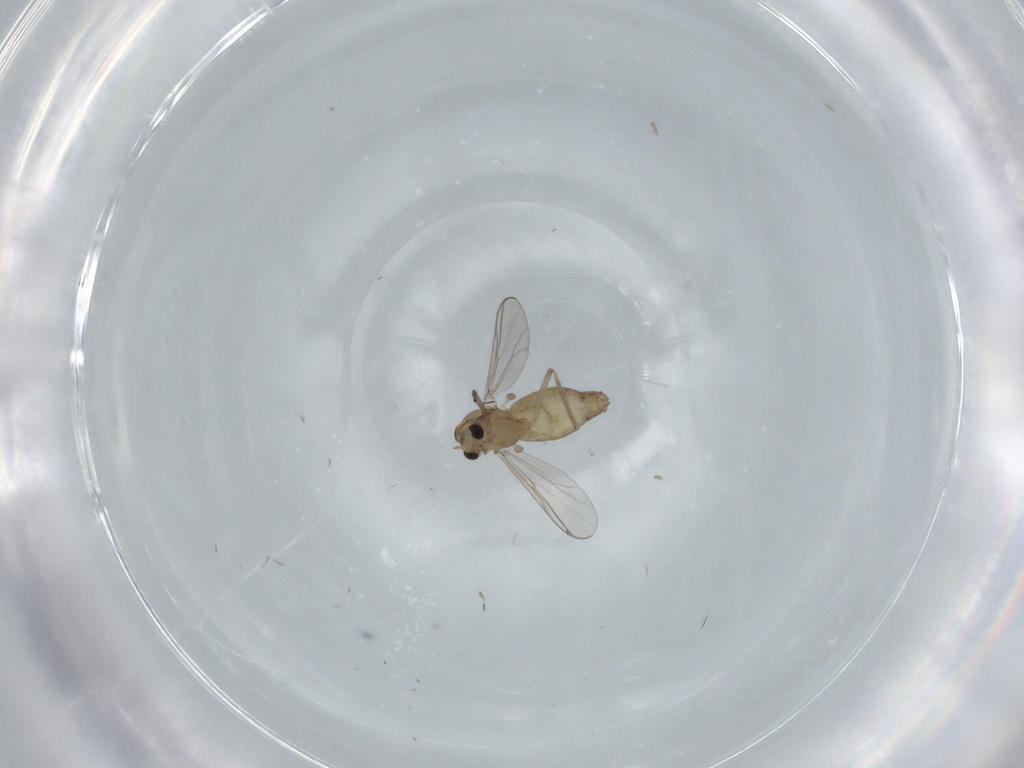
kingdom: Animalia
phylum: Arthropoda
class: Insecta
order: Diptera
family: Chironomidae
